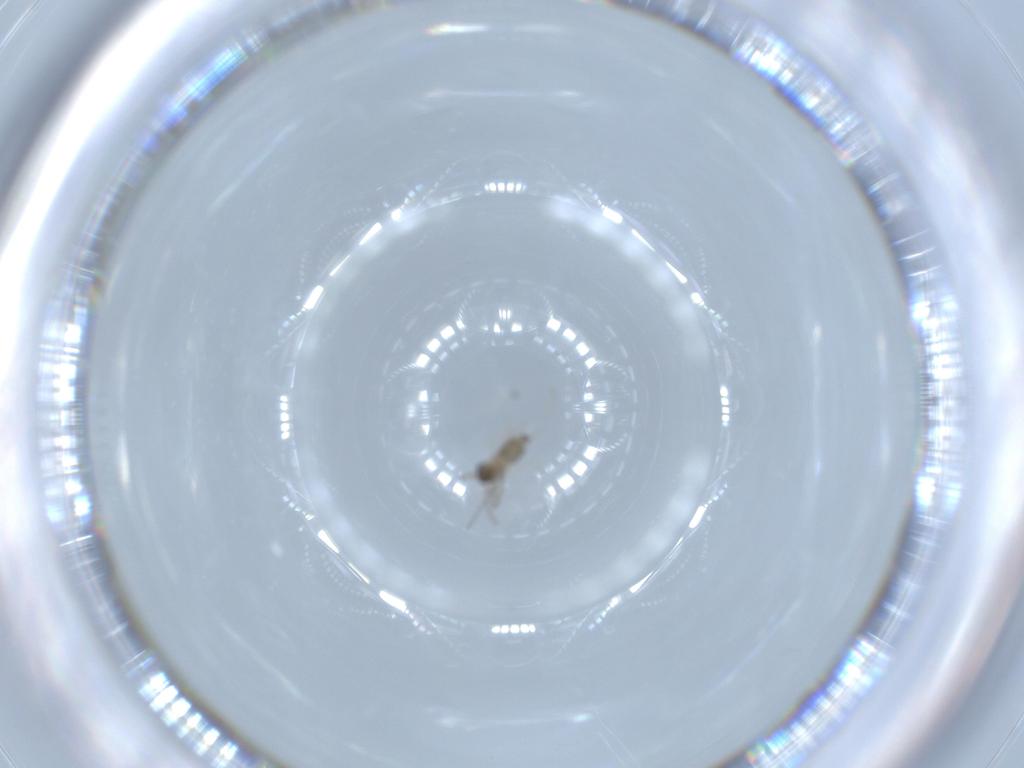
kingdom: Animalia
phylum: Arthropoda
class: Insecta
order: Diptera
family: Cecidomyiidae
